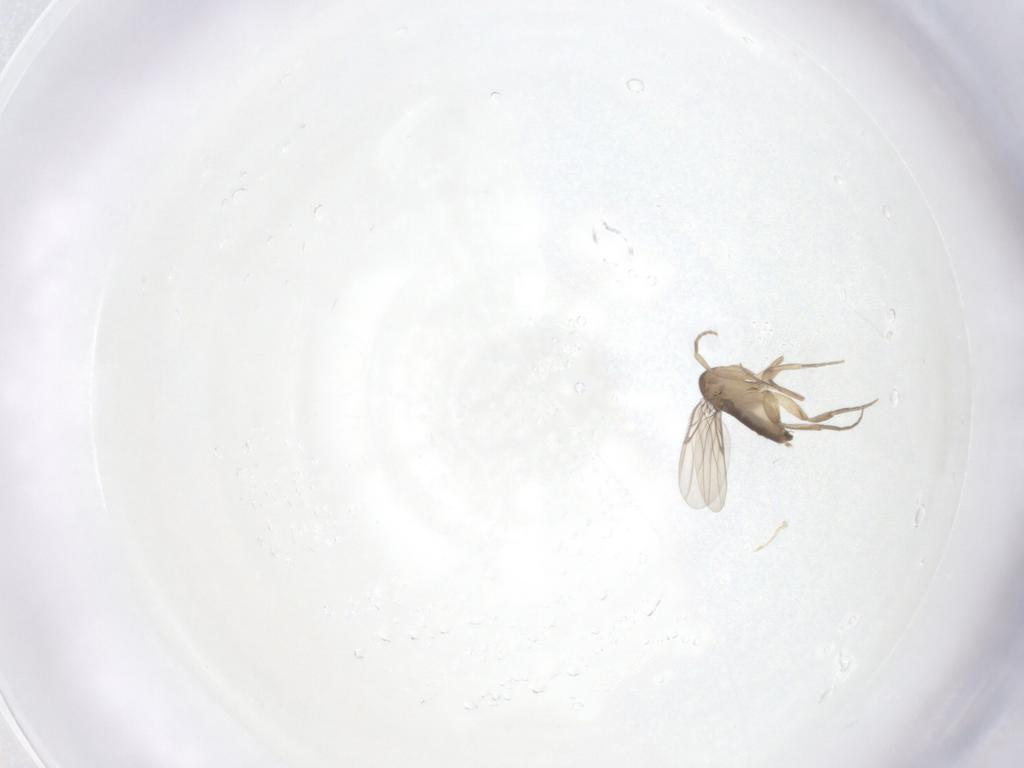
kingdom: Animalia
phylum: Arthropoda
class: Insecta
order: Diptera
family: Phoridae
